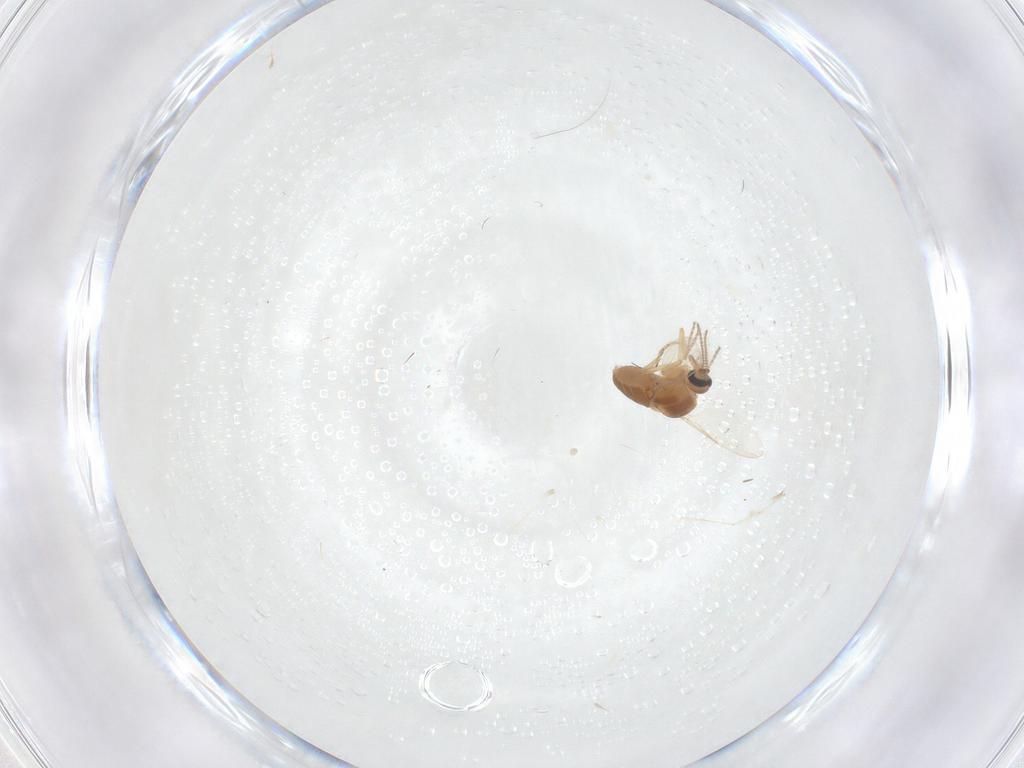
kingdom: Animalia
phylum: Arthropoda
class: Insecta
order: Diptera
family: Ceratopogonidae
